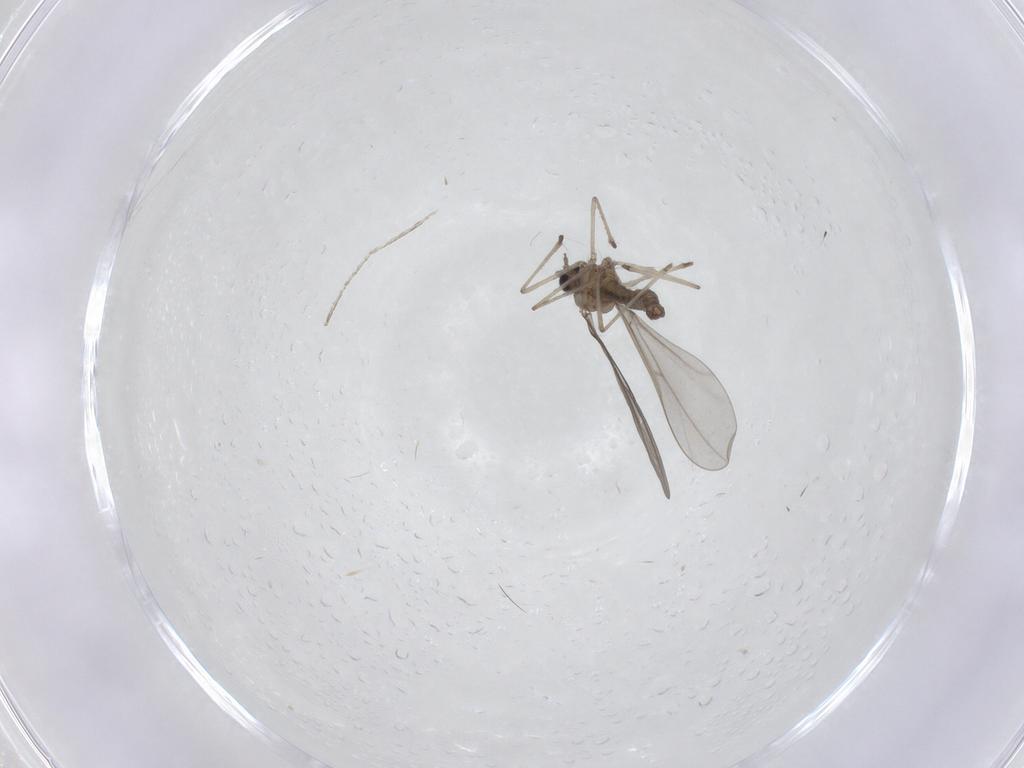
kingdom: Animalia
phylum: Arthropoda
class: Insecta
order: Diptera
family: Cecidomyiidae
